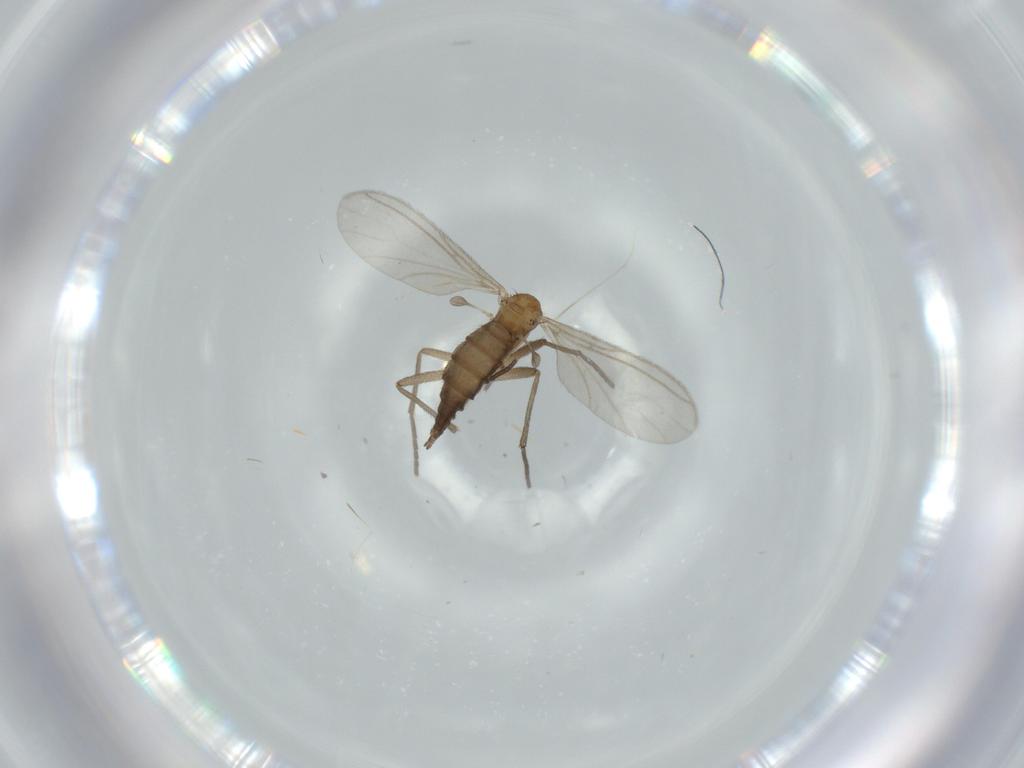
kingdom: Animalia
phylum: Arthropoda
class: Insecta
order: Diptera
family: Sciaridae
